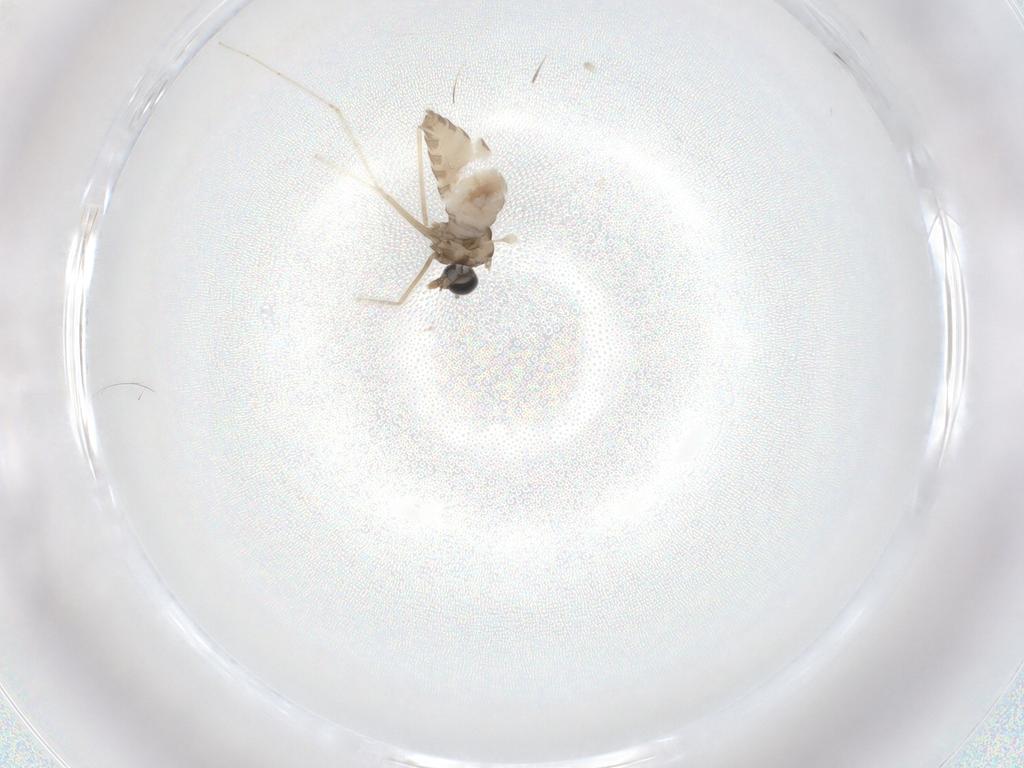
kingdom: Animalia
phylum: Arthropoda
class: Insecta
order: Diptera
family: Cecidomyiidae
